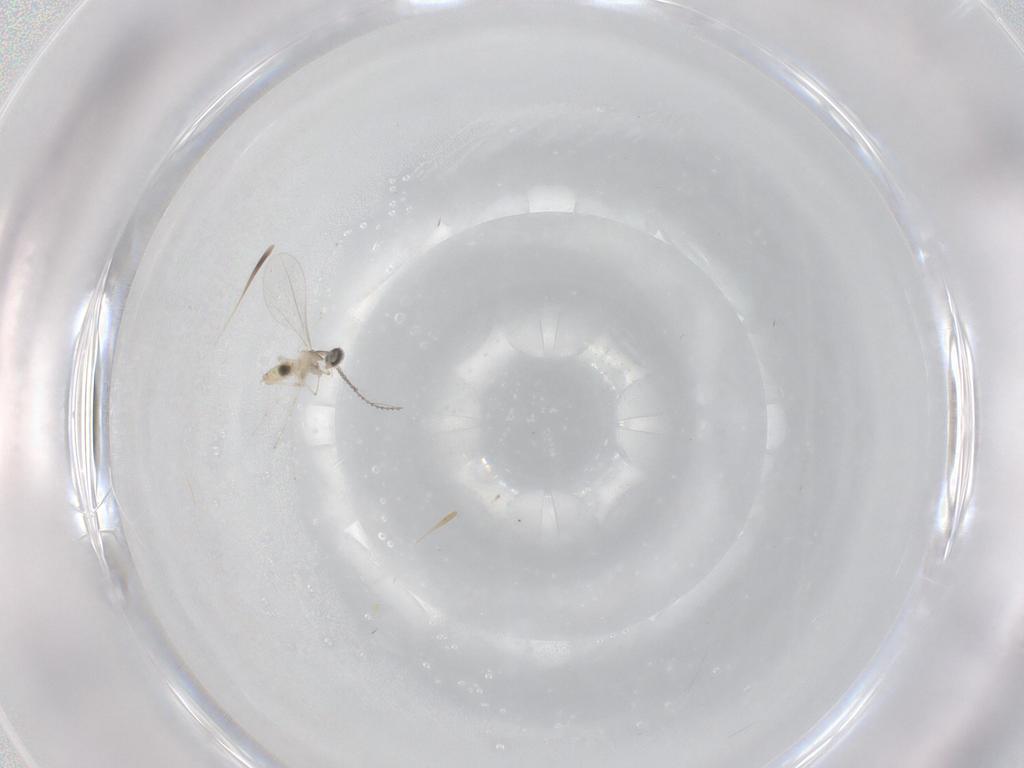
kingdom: Animalia
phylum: Arthropoda
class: Insecta
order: Diptera
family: Cecidomyiidae
